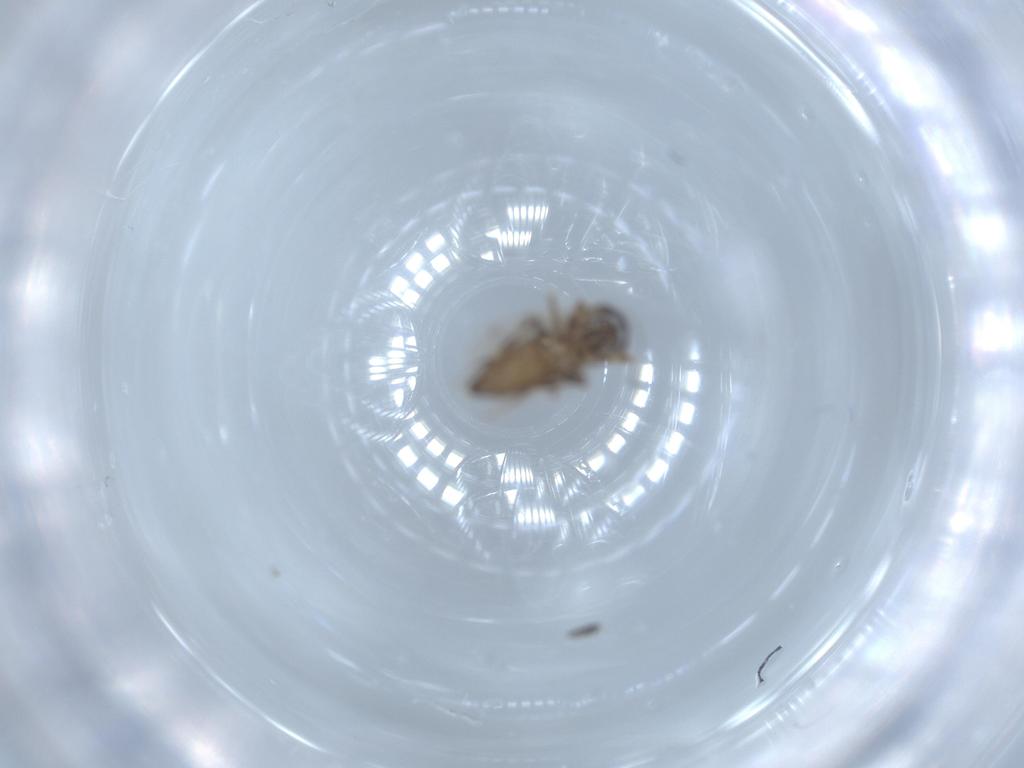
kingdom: Animalia
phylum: Arthropoda
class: Insecta
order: Diptera
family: Ceratopogonidae
